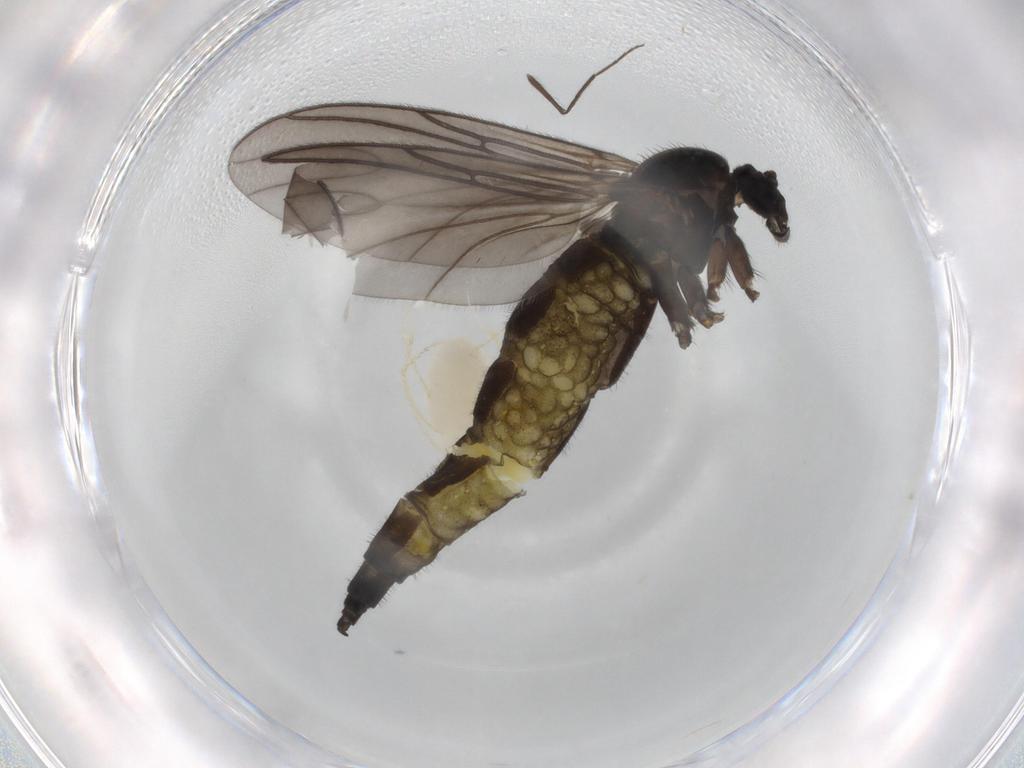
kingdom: Animalia
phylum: Arthropoda
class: Insecta
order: Diptera
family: Sciaridae
